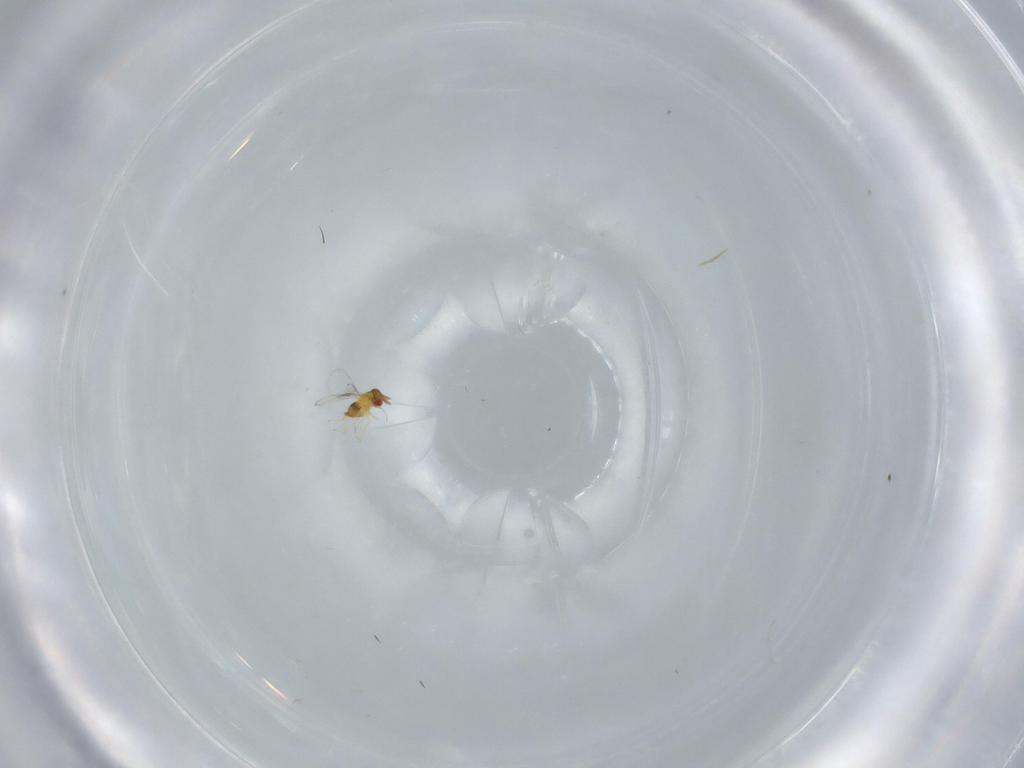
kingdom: Animalia
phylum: Arthropoda
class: Insecta
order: Hymenoptera
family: Trichogrammatidae
